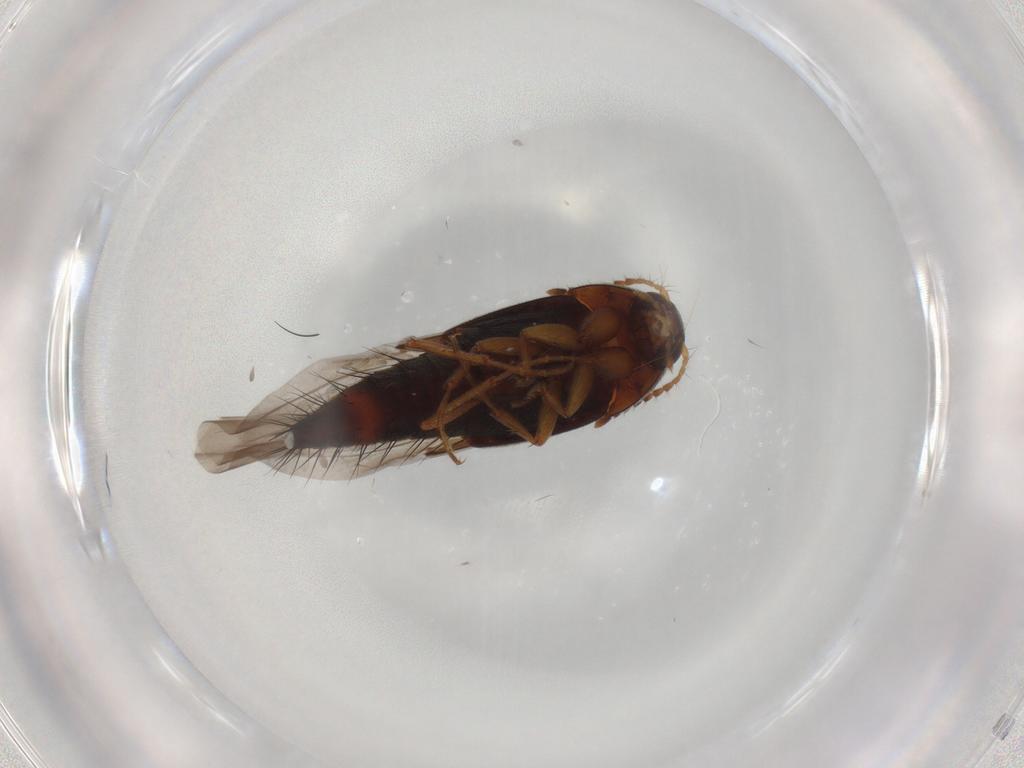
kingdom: Animalia
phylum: Arthropoda
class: Insecta
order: Coleoptera
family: Staphylinidae
